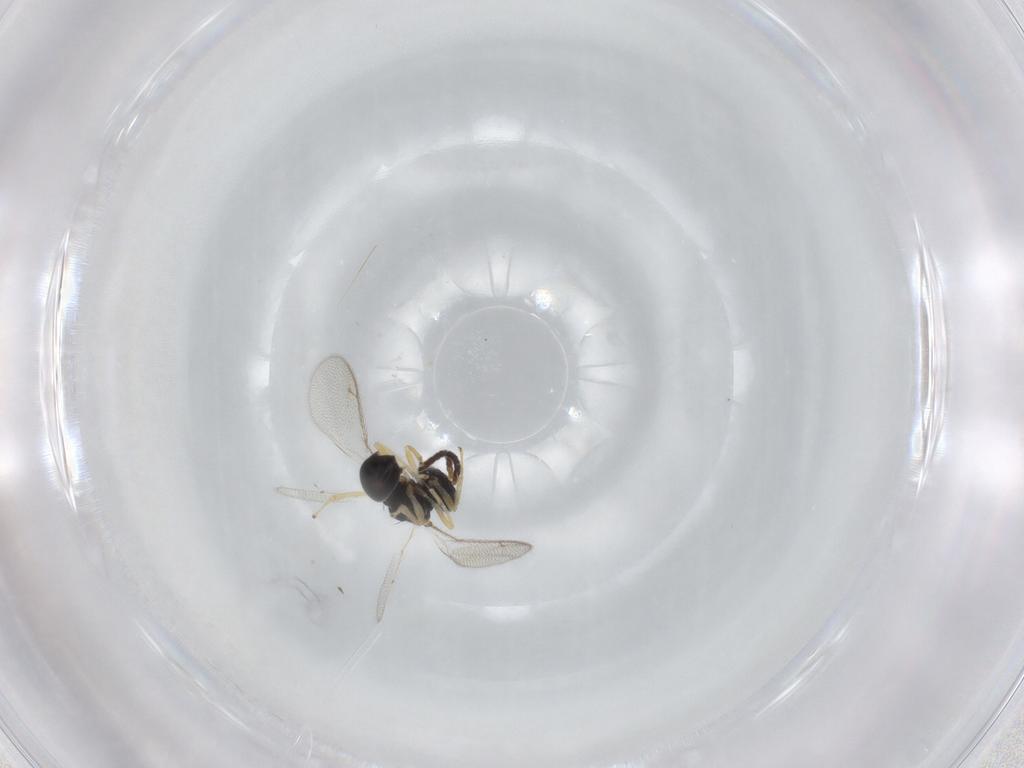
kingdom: Animalia
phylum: Arthropoda
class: Insecta
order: Hymenoptera
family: Diparidae
